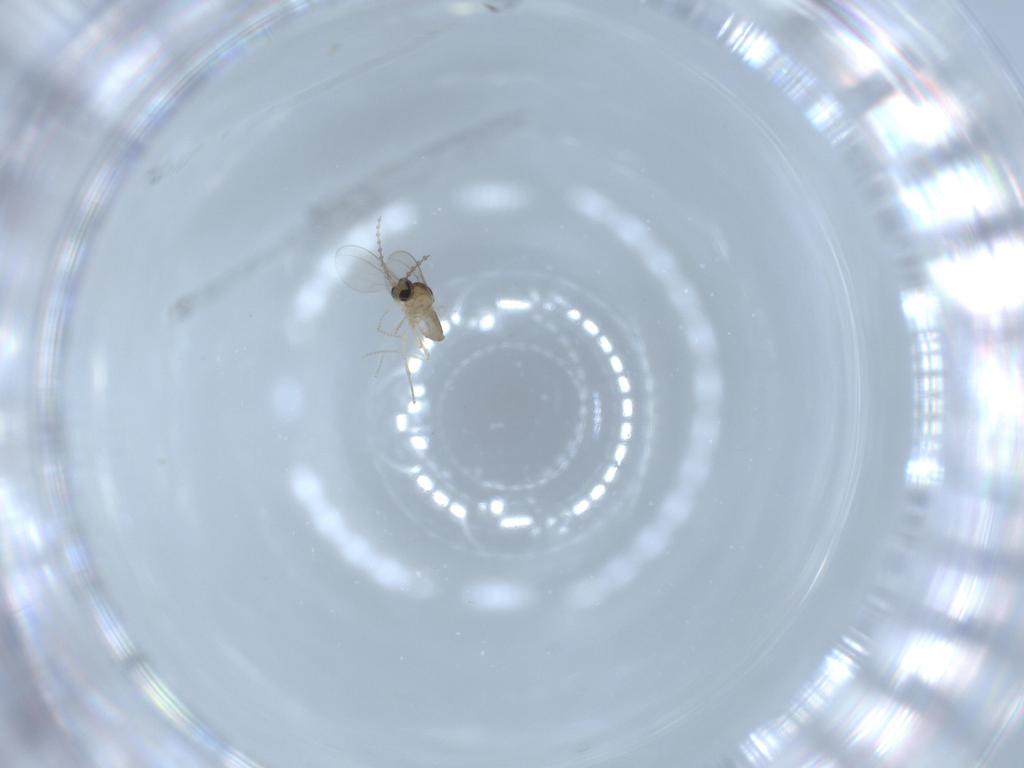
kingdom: Animalia
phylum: Arthropoda
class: Insecta
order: Diptera
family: Cecidomyiidae
